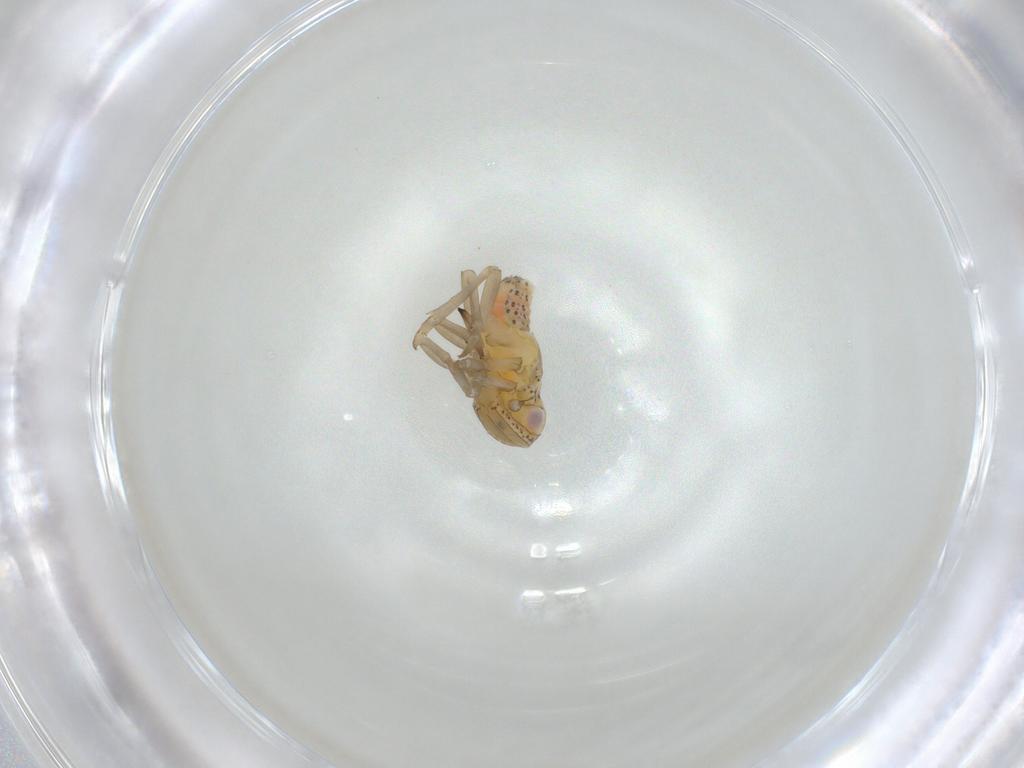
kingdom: Animalia
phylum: Arthropoda
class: Insecta
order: Hemiptera
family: Tropiduchidae
